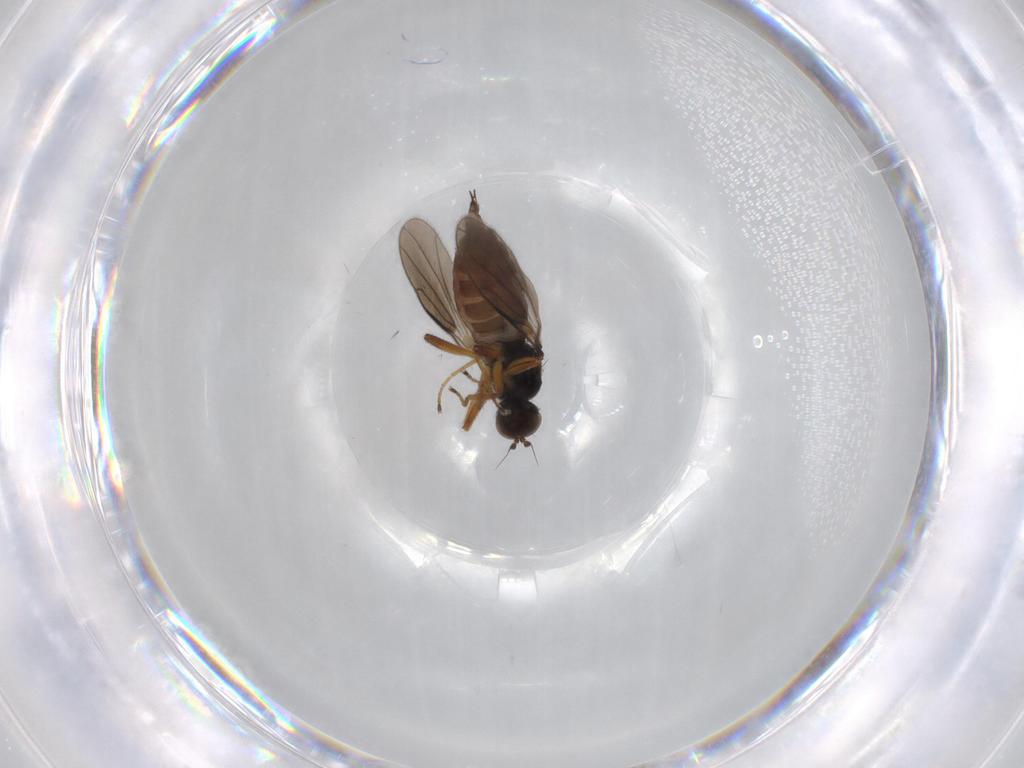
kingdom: Animalia
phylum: Arthropoda
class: Insecta
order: Diptera
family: Hybotidae
